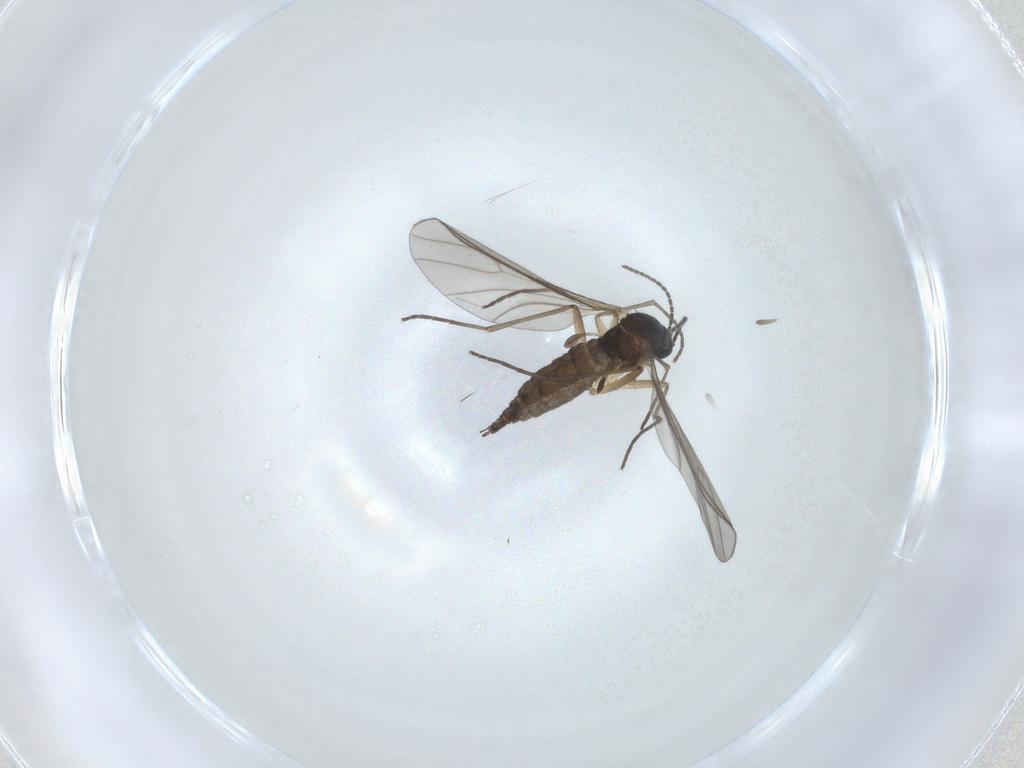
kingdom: Animalia
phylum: Arthropoda
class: Insecta
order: Diptera
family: Sciaridae
